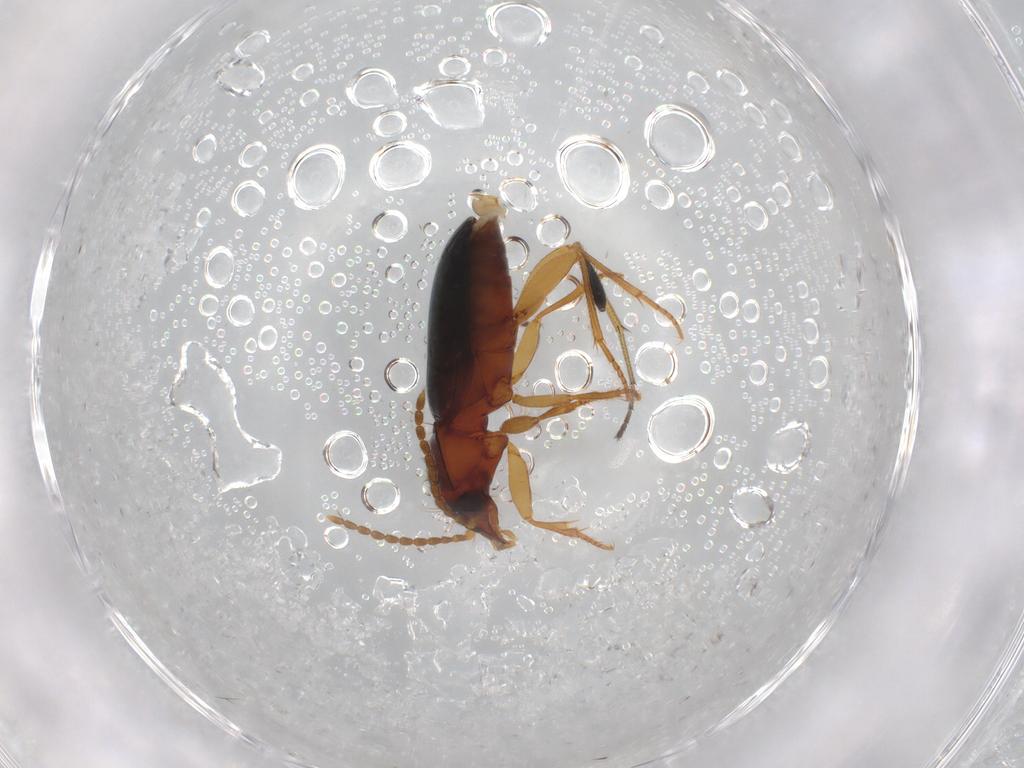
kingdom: Animalia
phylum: Arthropoda
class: Insecta
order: Coleoptera
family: Carabidae
